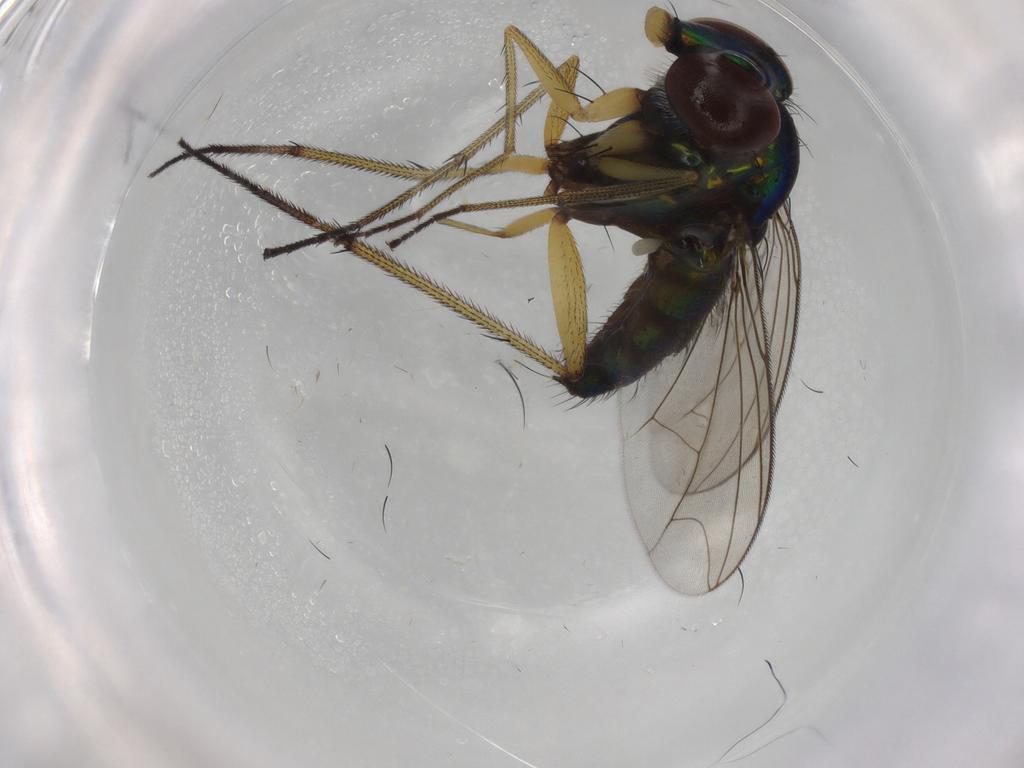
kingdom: Animalia
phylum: Arthropoda
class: Insecta
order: Diptera
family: Dolichopodidae
